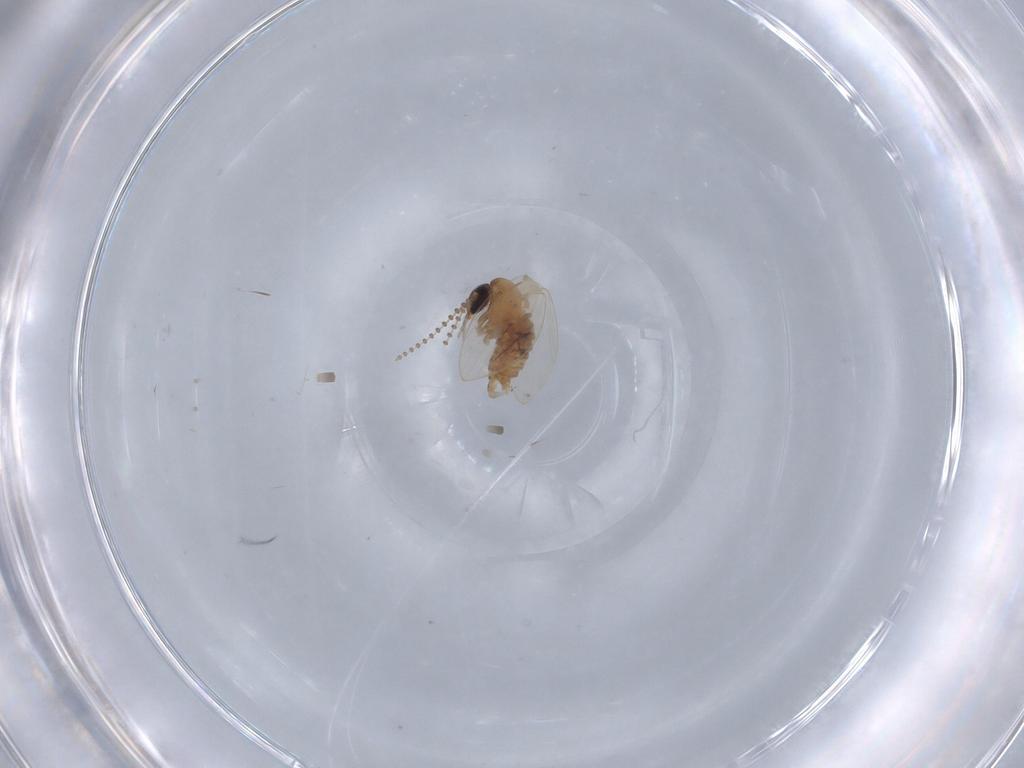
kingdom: Animalia
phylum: Arthropoda
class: Insecta
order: Diptera
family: Psychodidae
